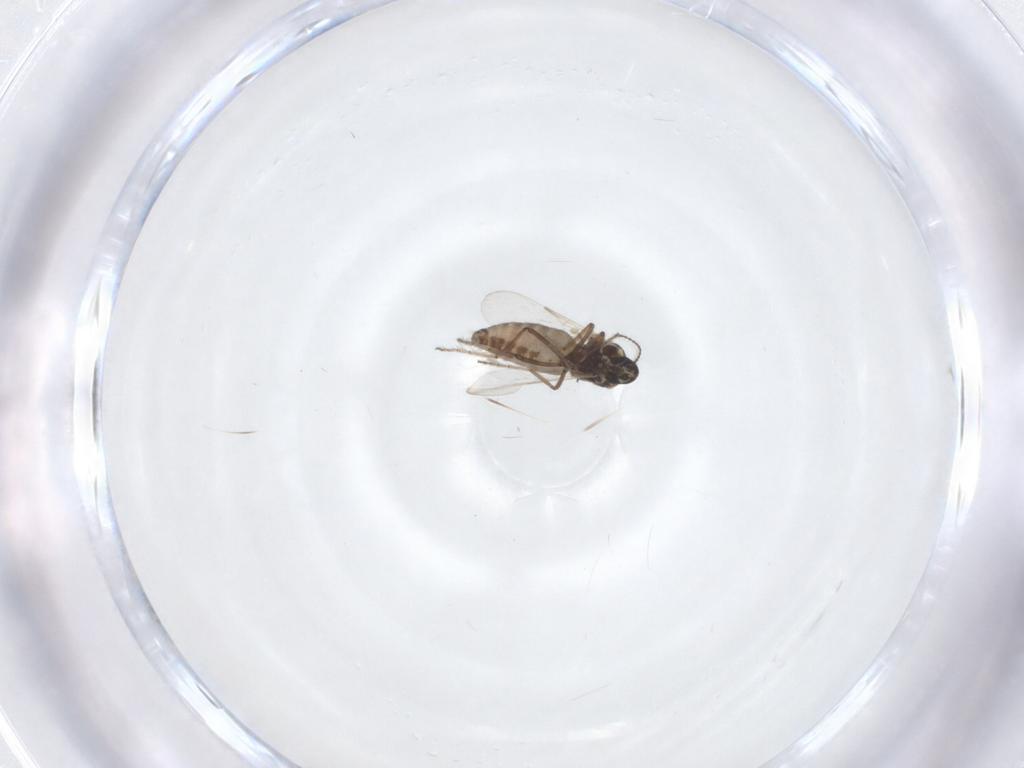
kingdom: Animalia
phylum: Arthropoda
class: Insecta
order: Diptera
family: Ceratopogonidae
